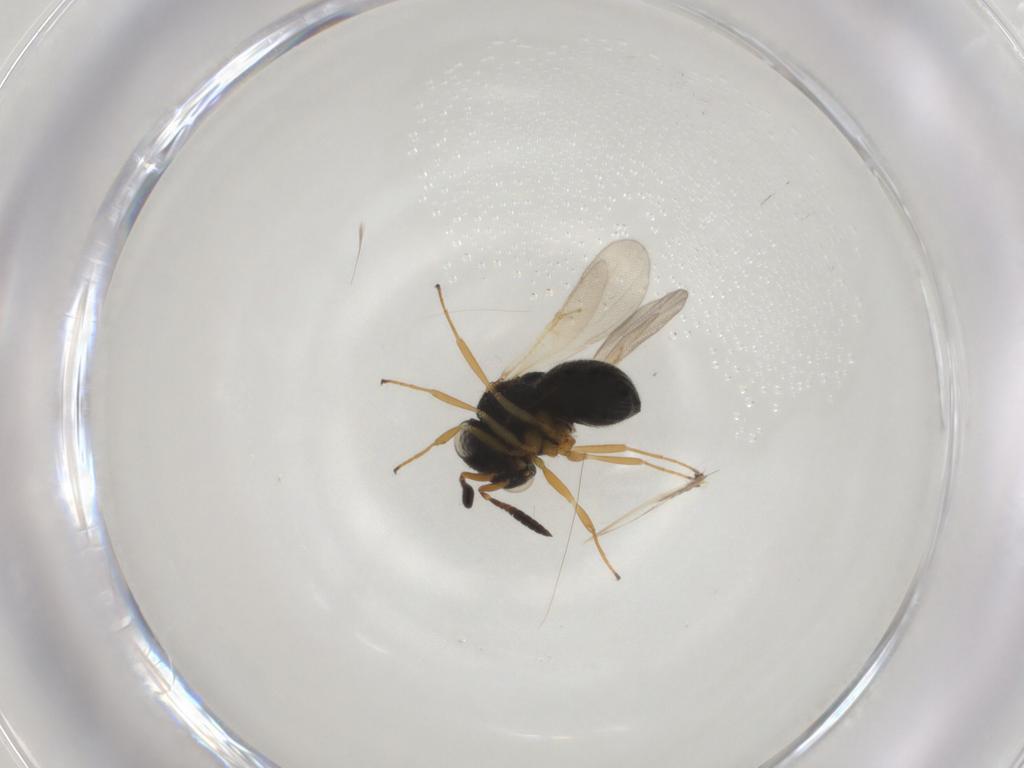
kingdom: Animalia
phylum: Arthropoda
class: Insecta
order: Hymenoptera
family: Scelionidae
